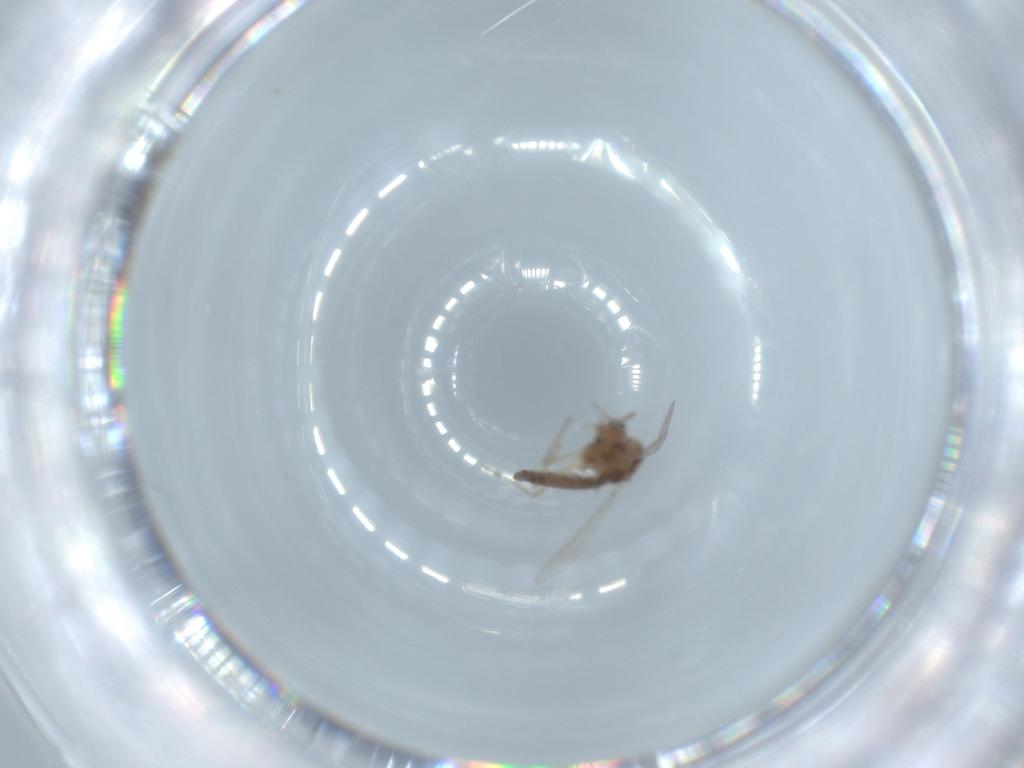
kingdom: Animalia
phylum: Arthropoda
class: Insecta
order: Diptera
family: Chironomidae
